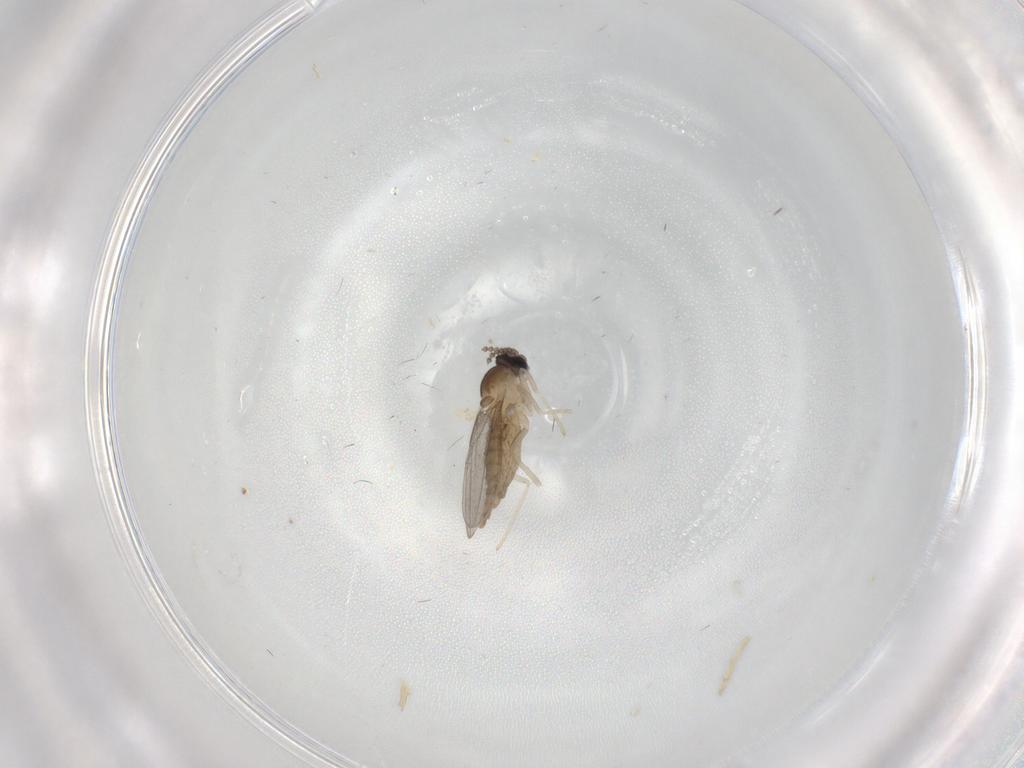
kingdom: Animalia
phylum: Arthropoda
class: Insecta
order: Diptera
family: Cecidomyiidae
